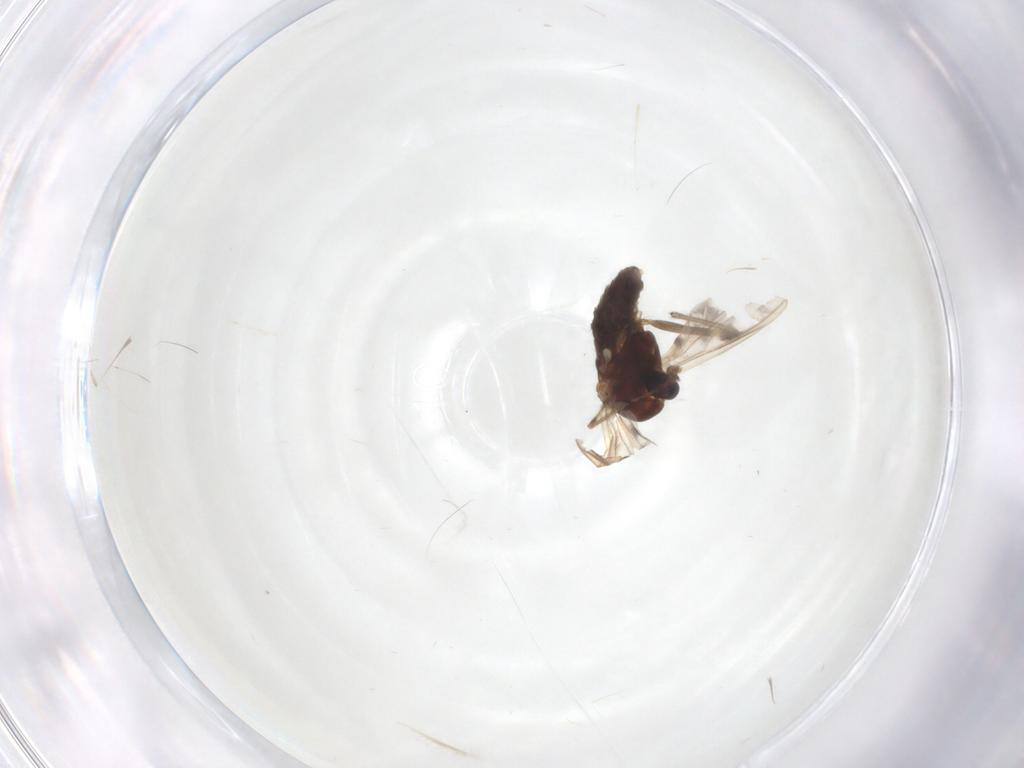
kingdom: Animalia
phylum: Arthropoda
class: Insecta
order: Diptera
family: Chironomidae
